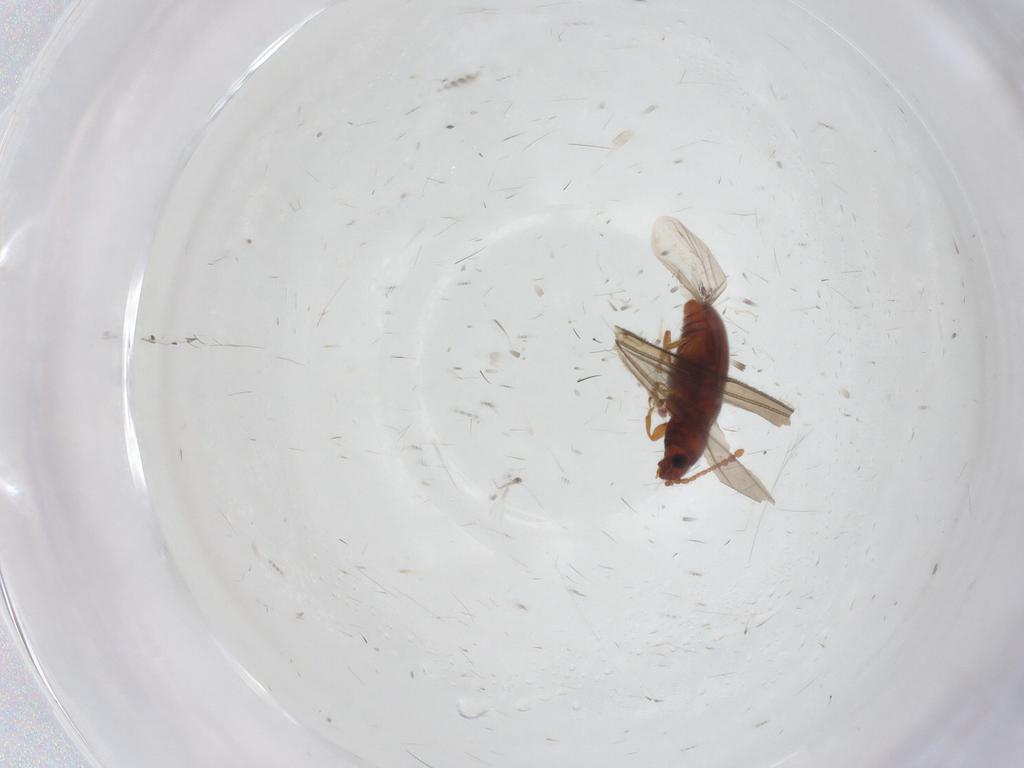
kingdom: Animalia
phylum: Arthropoda
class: Insecta
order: Coleoptera
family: Cryptophagidae
